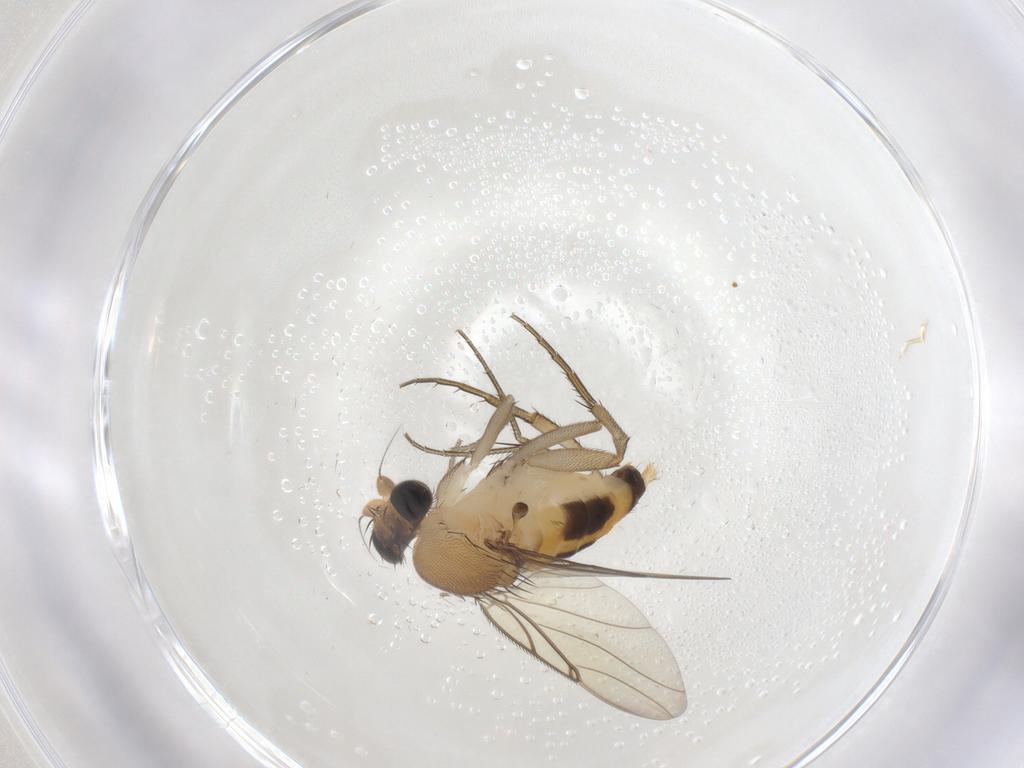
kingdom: Animalia
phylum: Arthropoda
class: Insecta
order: Diptera
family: Phoridae
